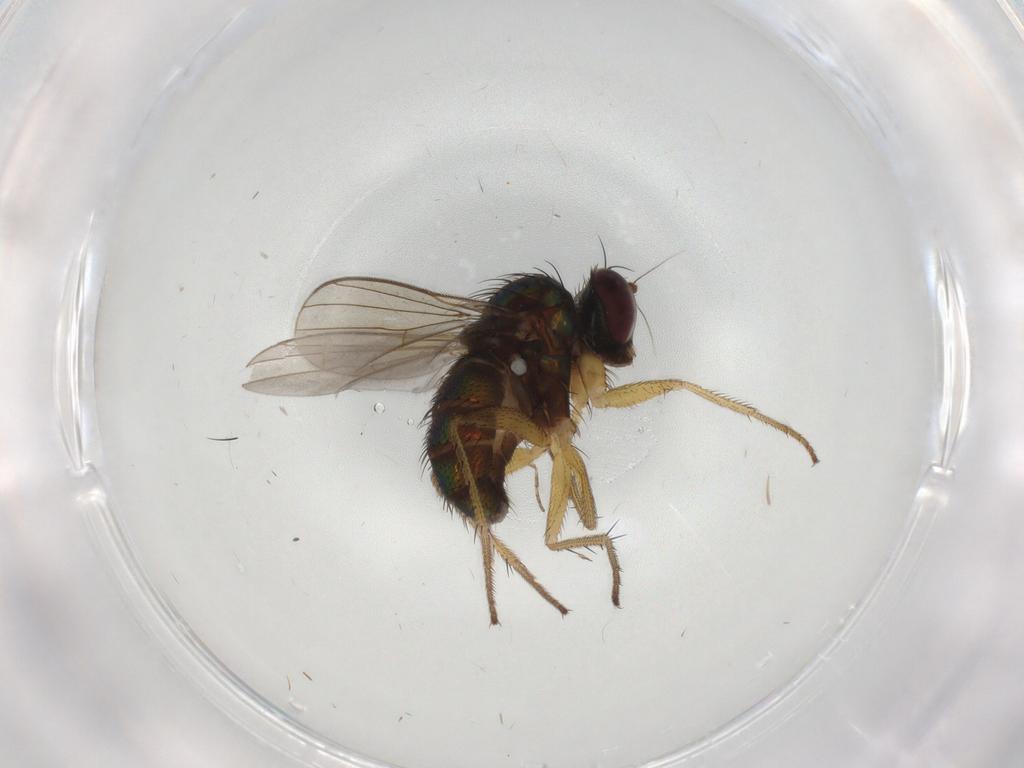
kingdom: Animalia
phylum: Arthropoda
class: Insecta
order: Diptera
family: Dolichopodidae
